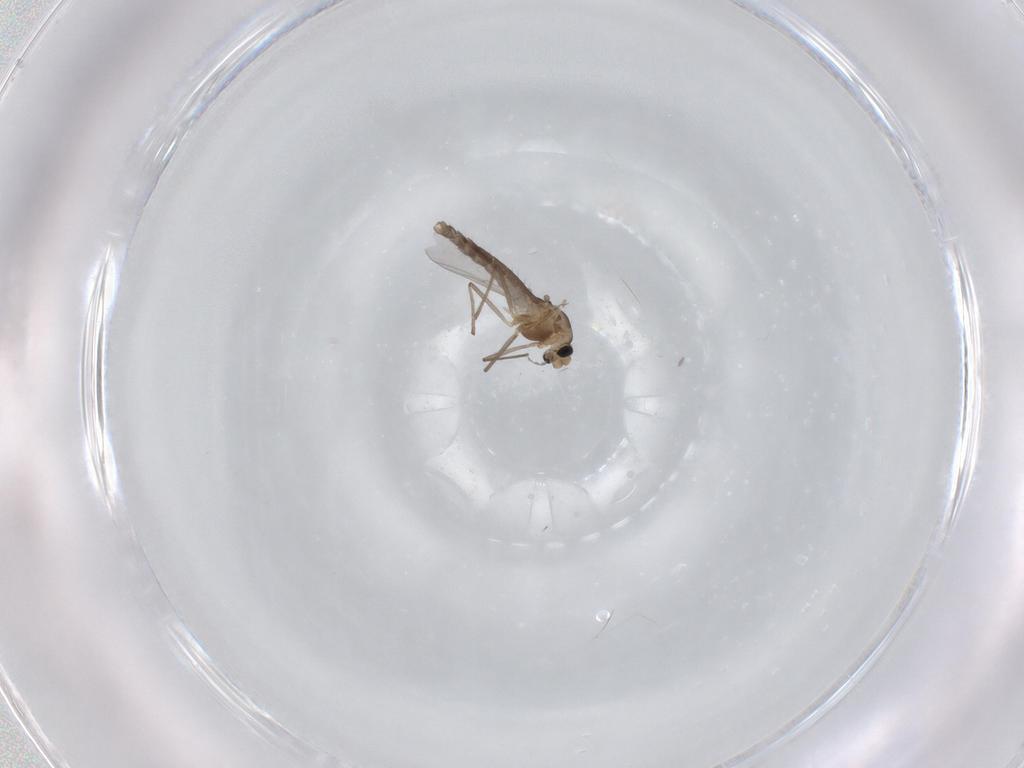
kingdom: Animalia
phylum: Arthropoda
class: Insecta
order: Diptera
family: Chironomidae
